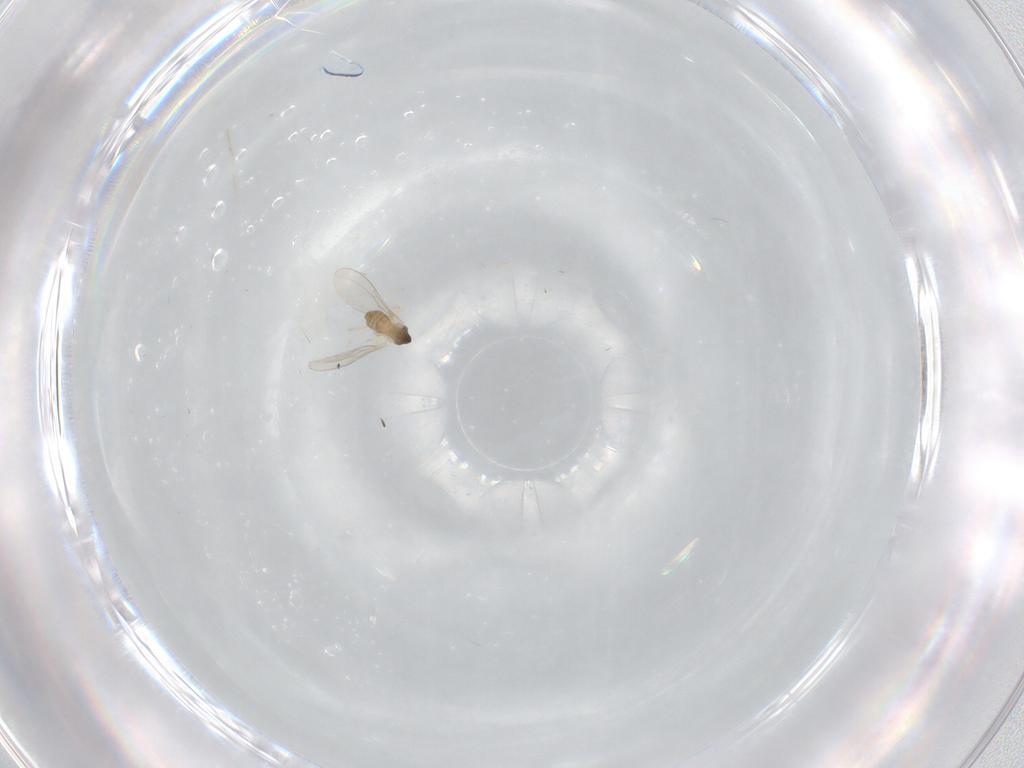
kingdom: Animalia
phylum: Arthropoda
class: Insecta
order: Diptera
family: Cecidomyiidae
